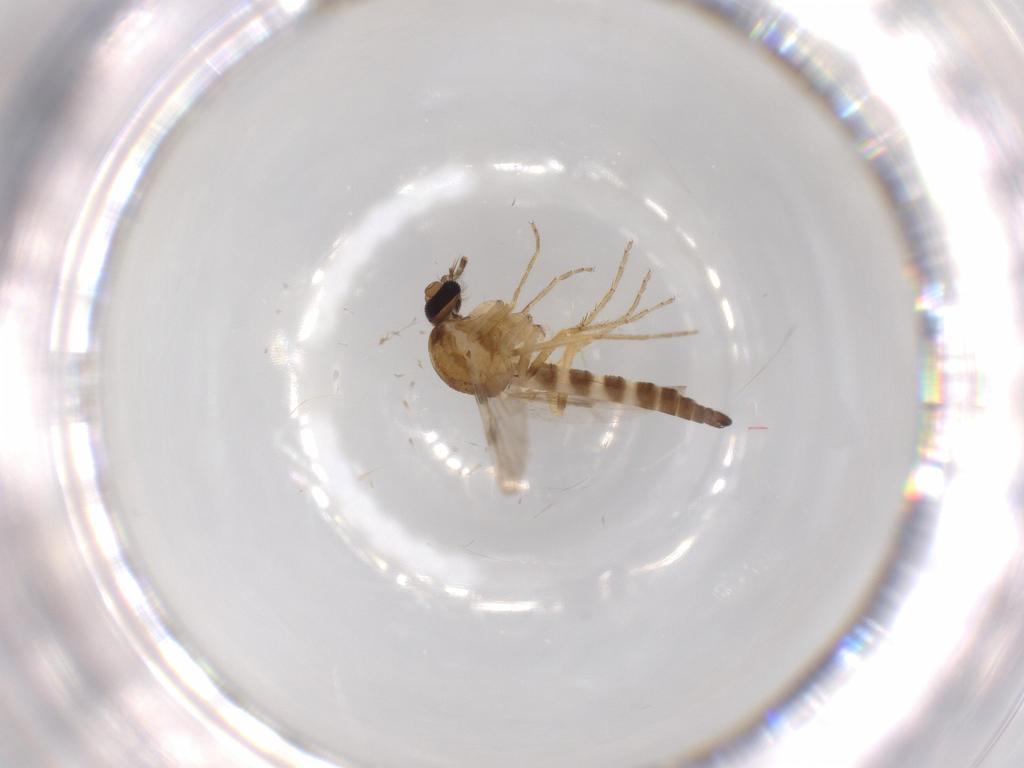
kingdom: Animalia
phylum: Arthropoda
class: Insecta
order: Diptera
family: Ceratopogonidae
